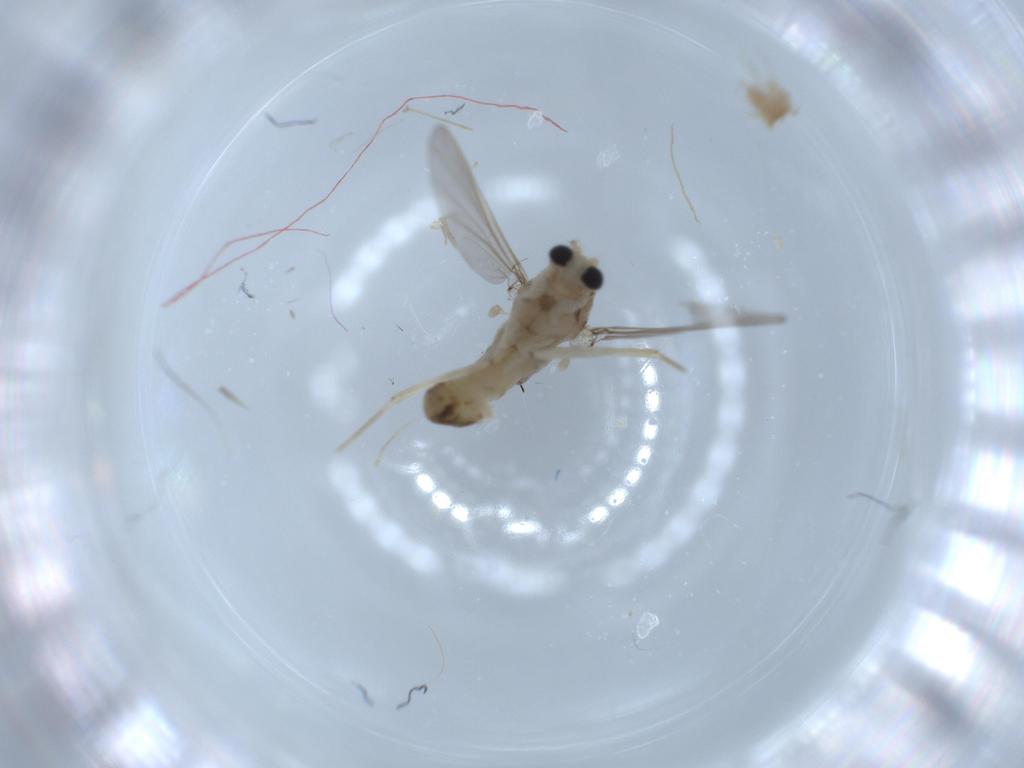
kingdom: Animalia
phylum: Arthropoda
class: Insecta
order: Diptera
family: Chironomidae
